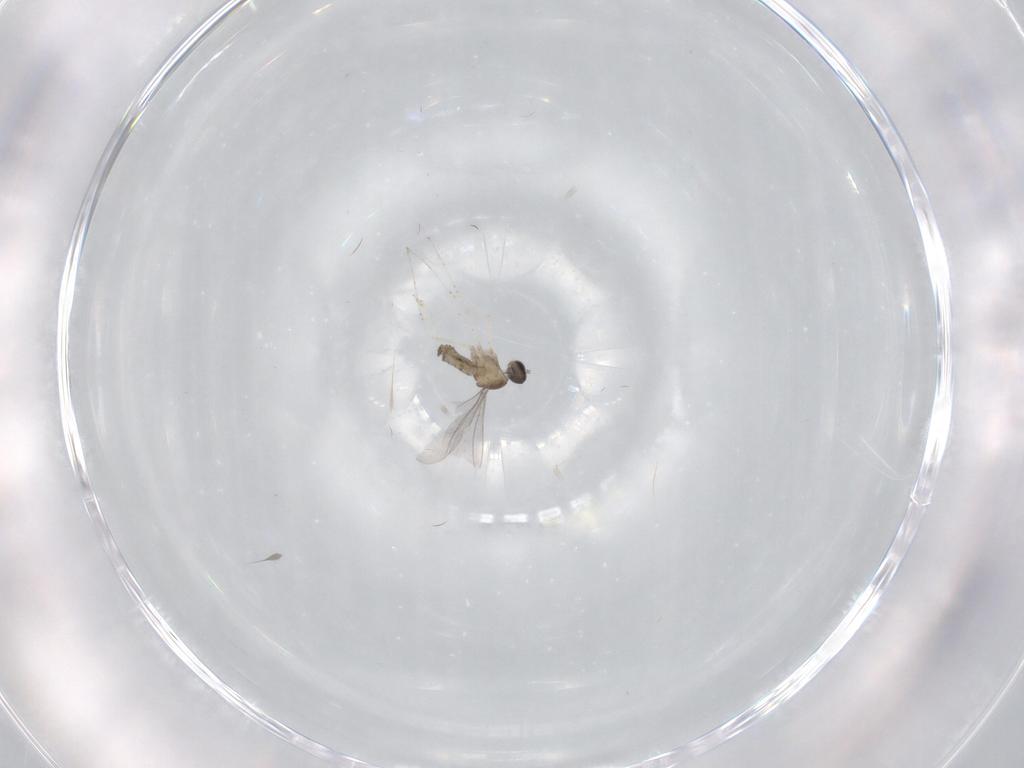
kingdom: Animalia
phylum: Arthropoda
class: Insecta
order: Diptera
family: Cecidomyiidae
